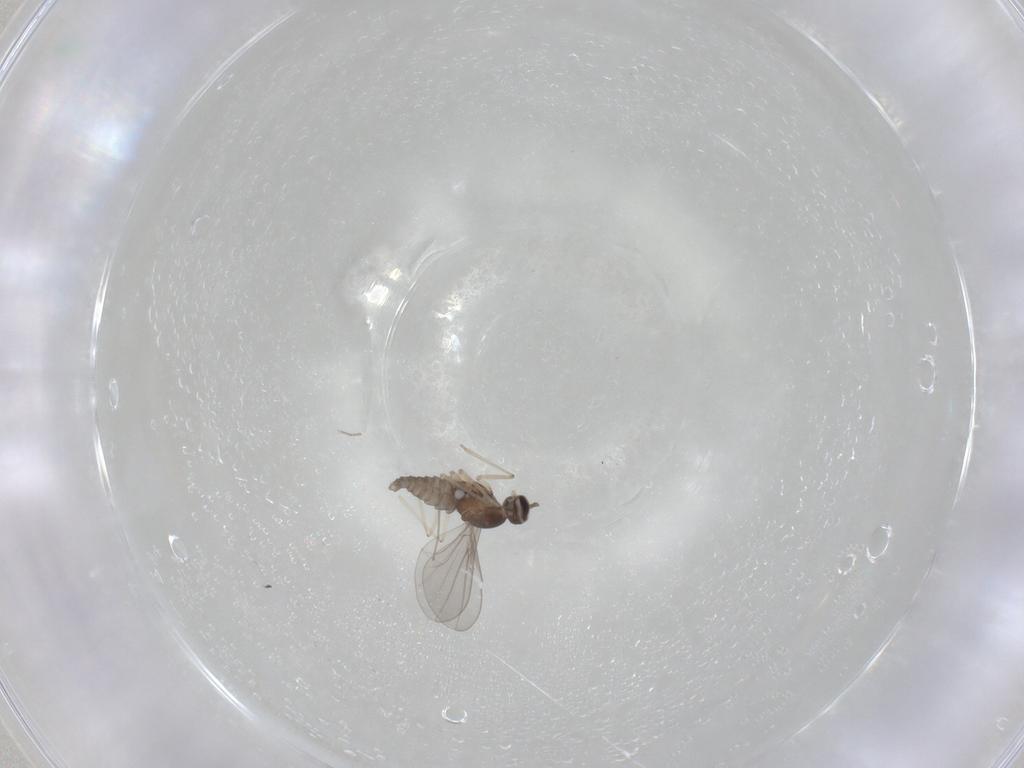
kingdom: Animalia
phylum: Arthropoda
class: Insecta
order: Diptera
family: Cecidomyiidae
